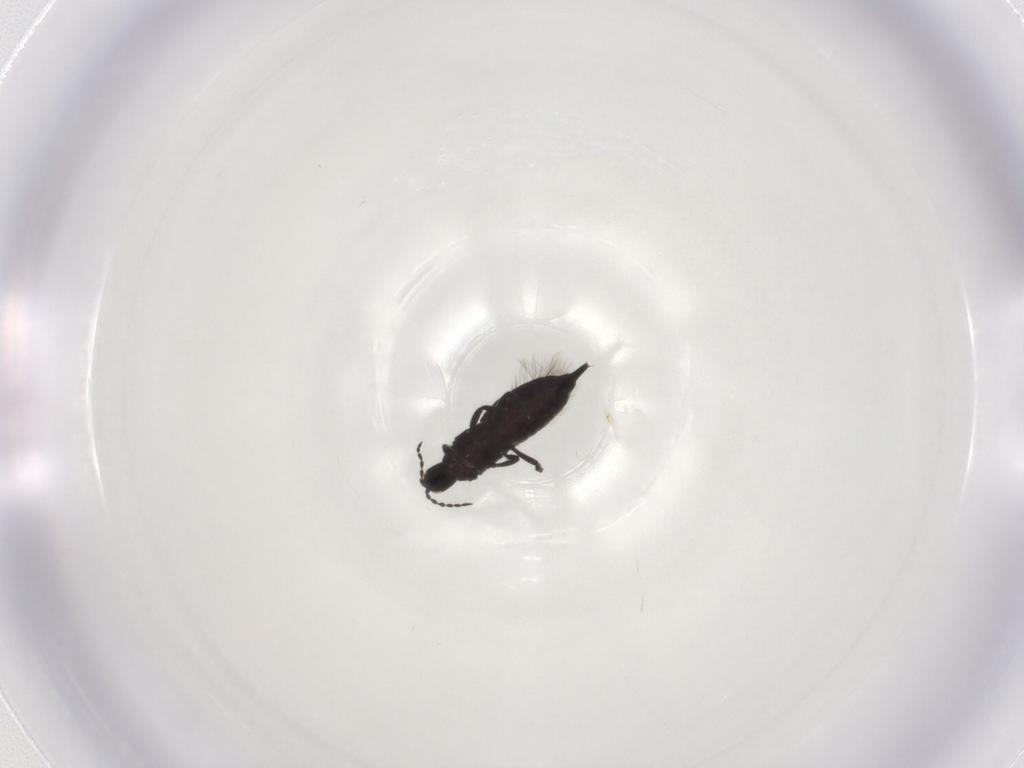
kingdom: Animalia
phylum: Arthropoda
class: Insecta
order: Thysanoptera
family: Phlaeothripidae
